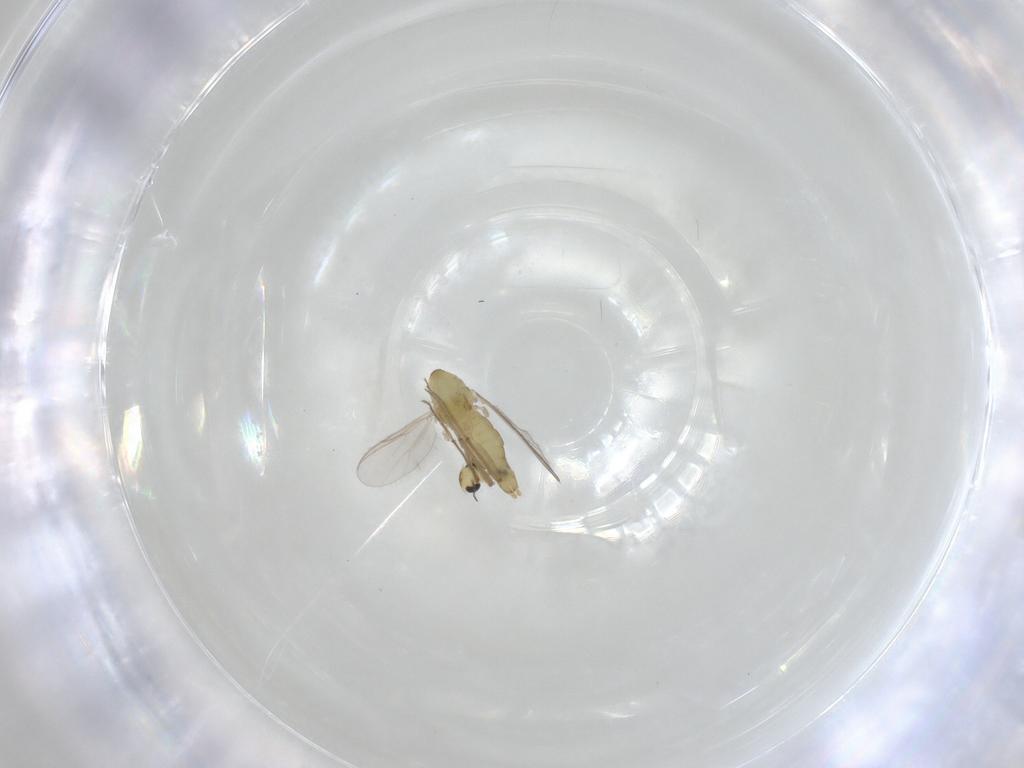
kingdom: Animalia
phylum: Arthropoda
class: Insecta
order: Diptera
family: Chironomidae
